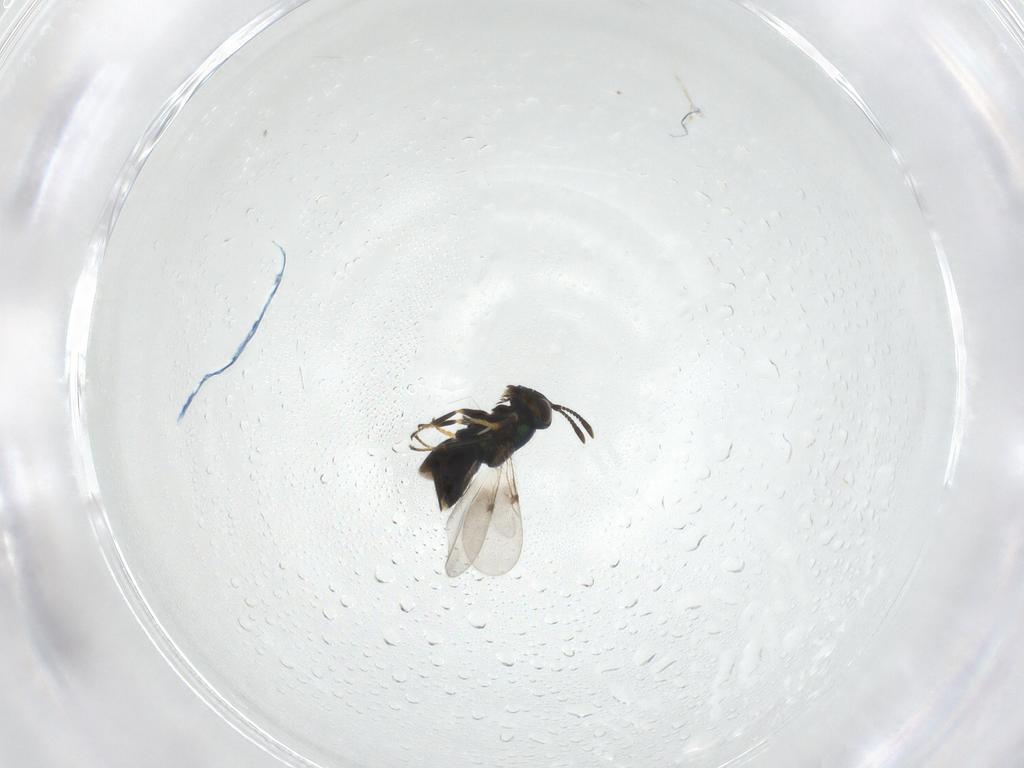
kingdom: Animalia
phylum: Arthropoda
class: Insecta
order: Hymenoptera
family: Encyrtidae
